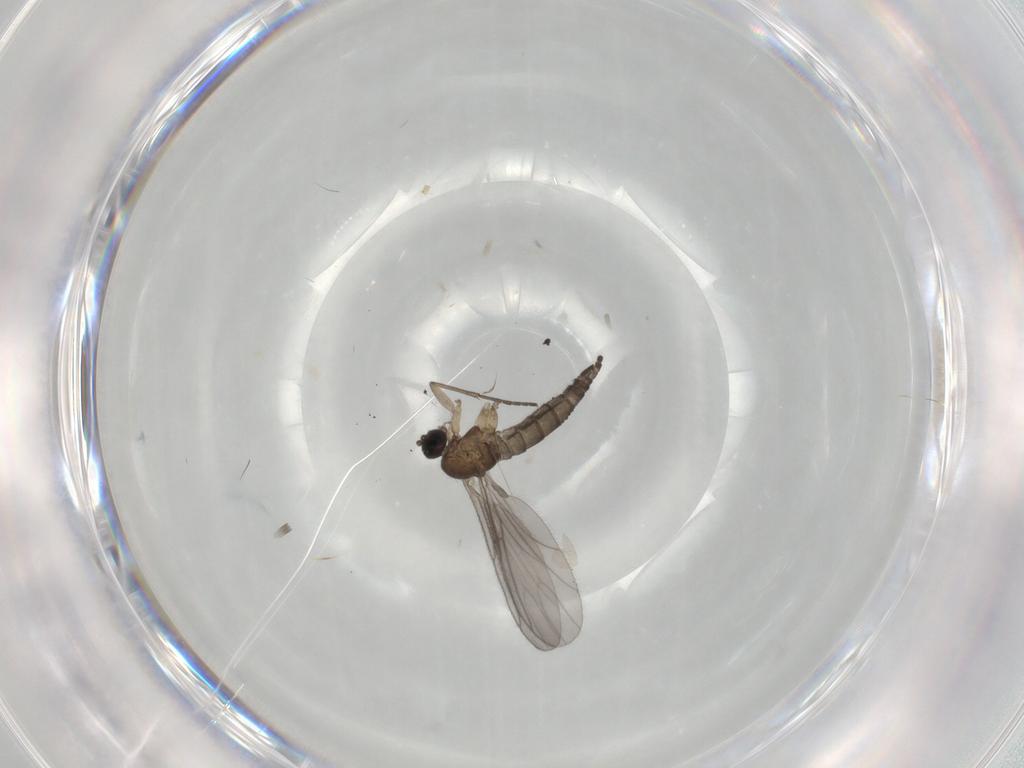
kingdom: Animalia
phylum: Arthropoda
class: Insecta
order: Diptera
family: Sciaridae
